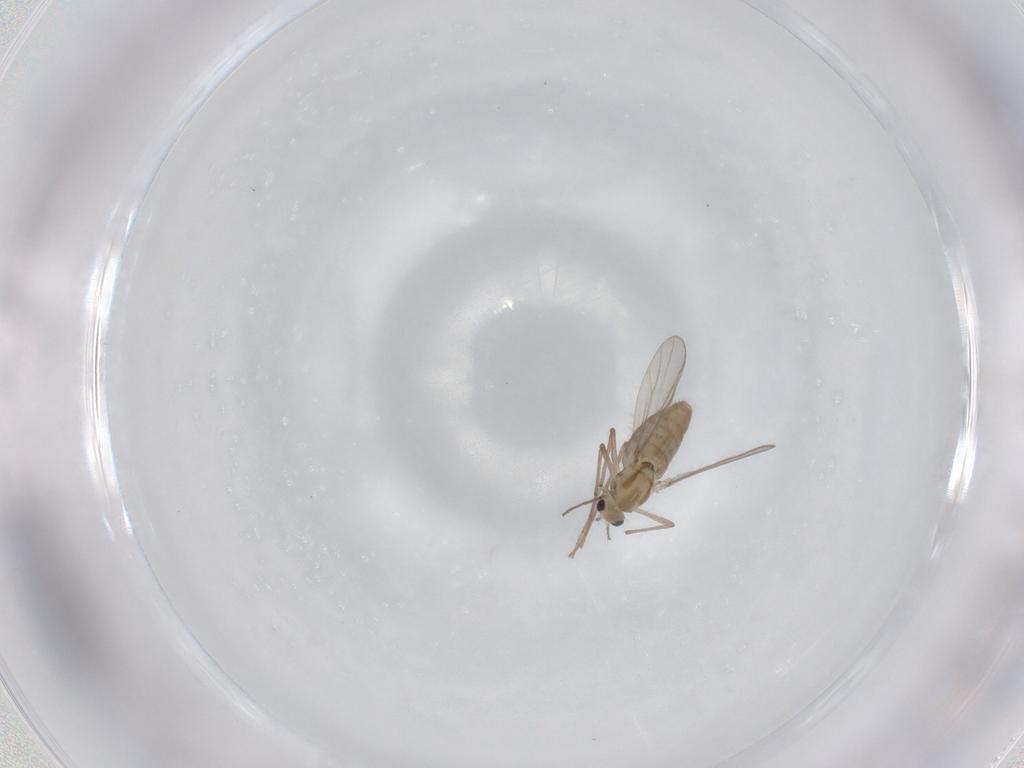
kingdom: Animalia
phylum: Arthropoda
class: Insecta
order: Diptera
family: Chironomidae
